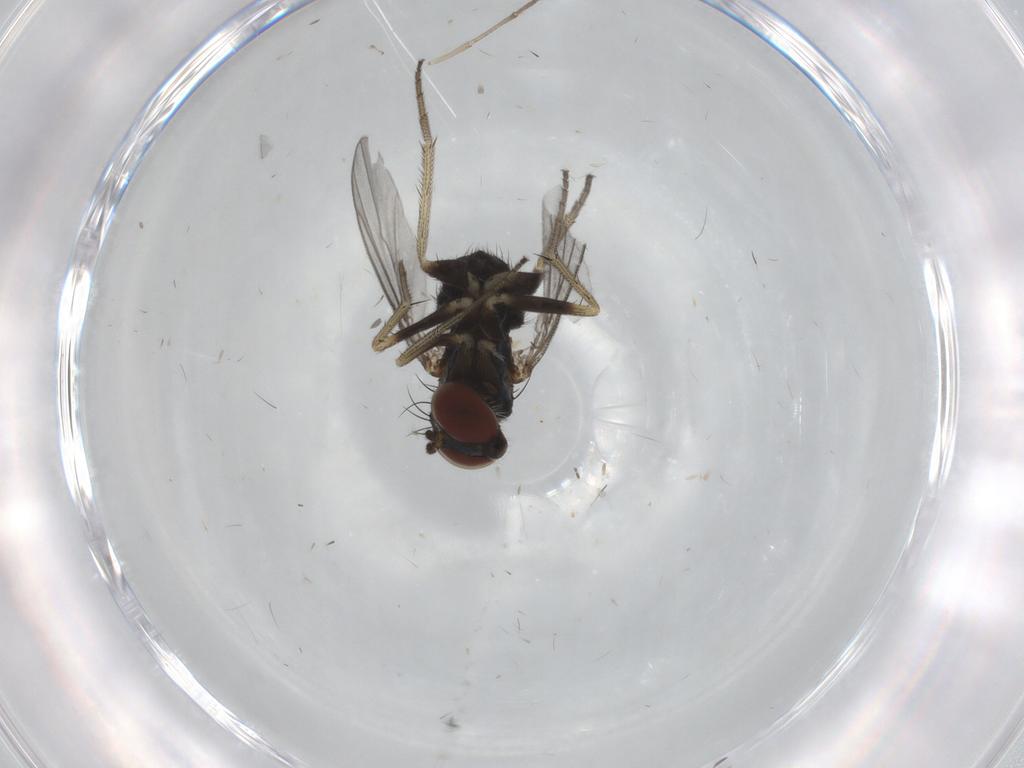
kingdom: Animalia
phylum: Arthropoda
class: Insecta
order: Diptera
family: Dolichopodidae
